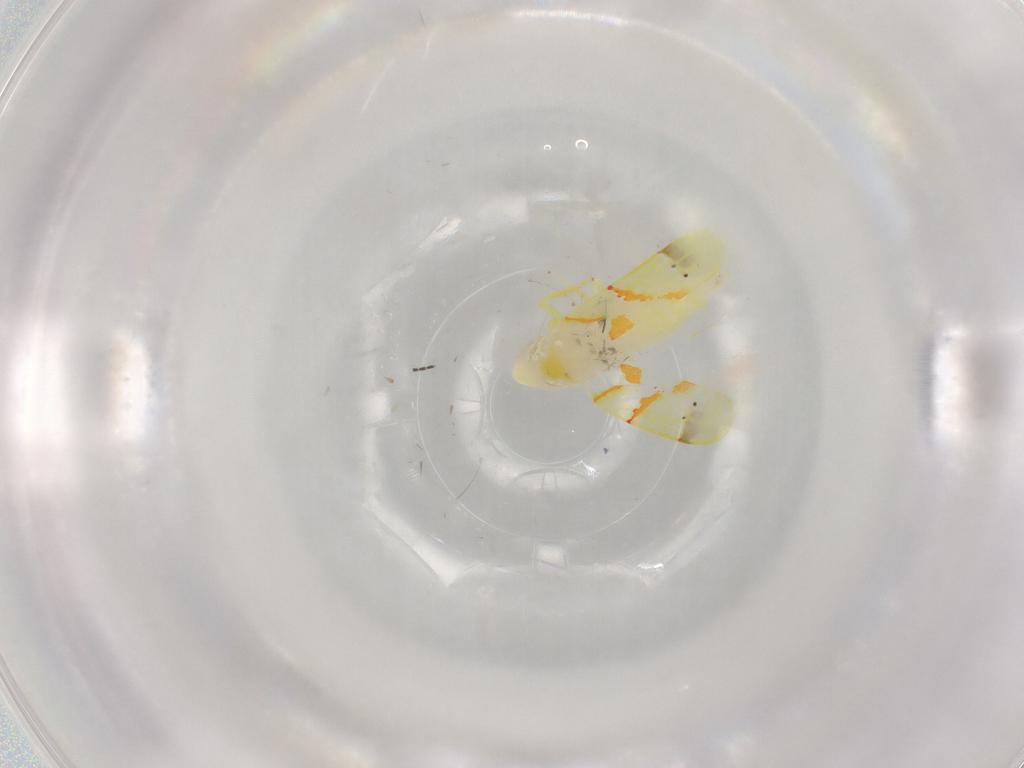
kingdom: Animalia
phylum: Arthropoda
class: Insecta
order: Hemiptera
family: Cicadellidae
